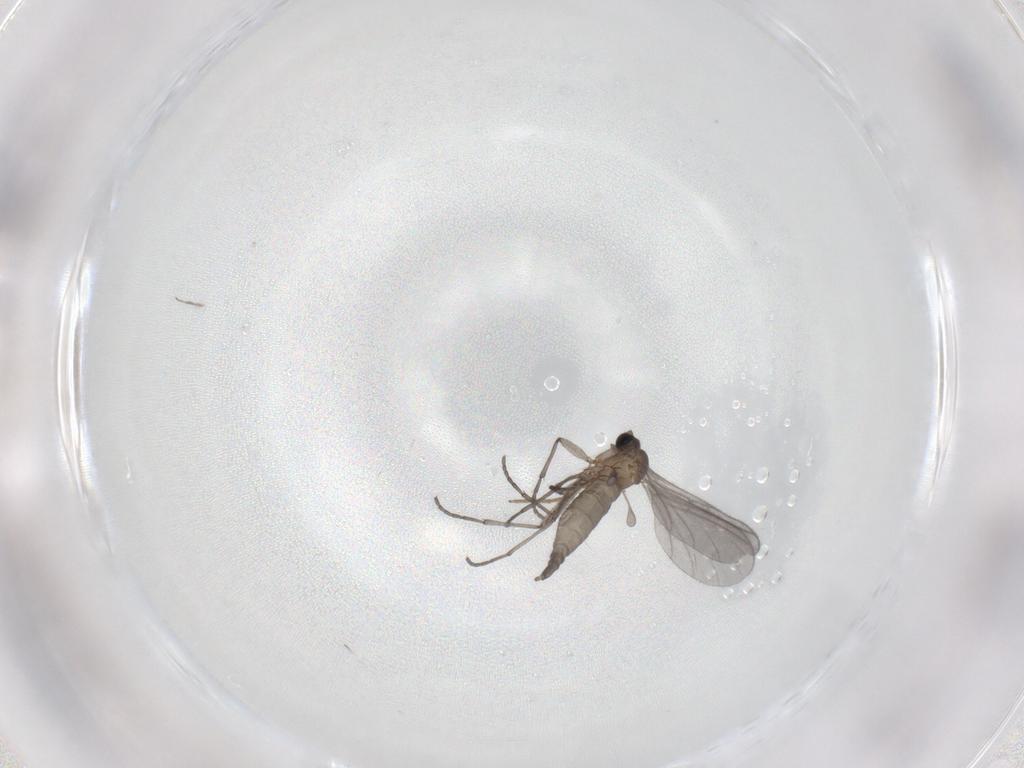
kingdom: Animalia
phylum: Arthropoda
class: Insecta
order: Diptera
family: Sciaridae
